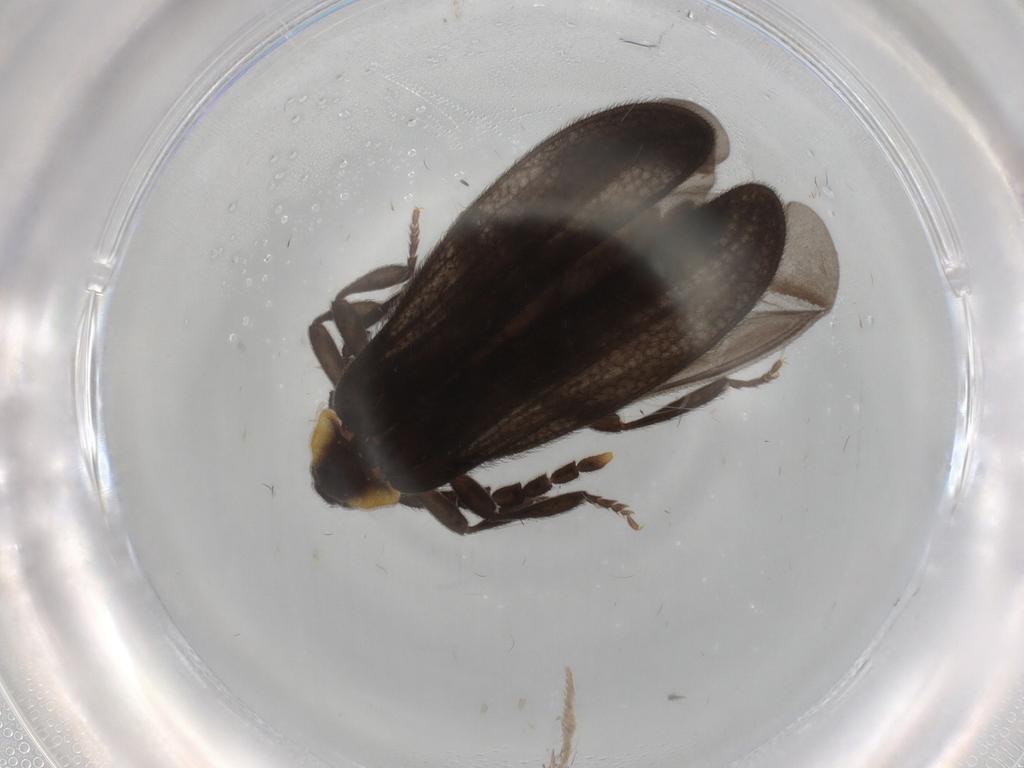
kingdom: Animalia
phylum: Arthropoda
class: Insecta
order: Coleoptera
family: Lycidae
